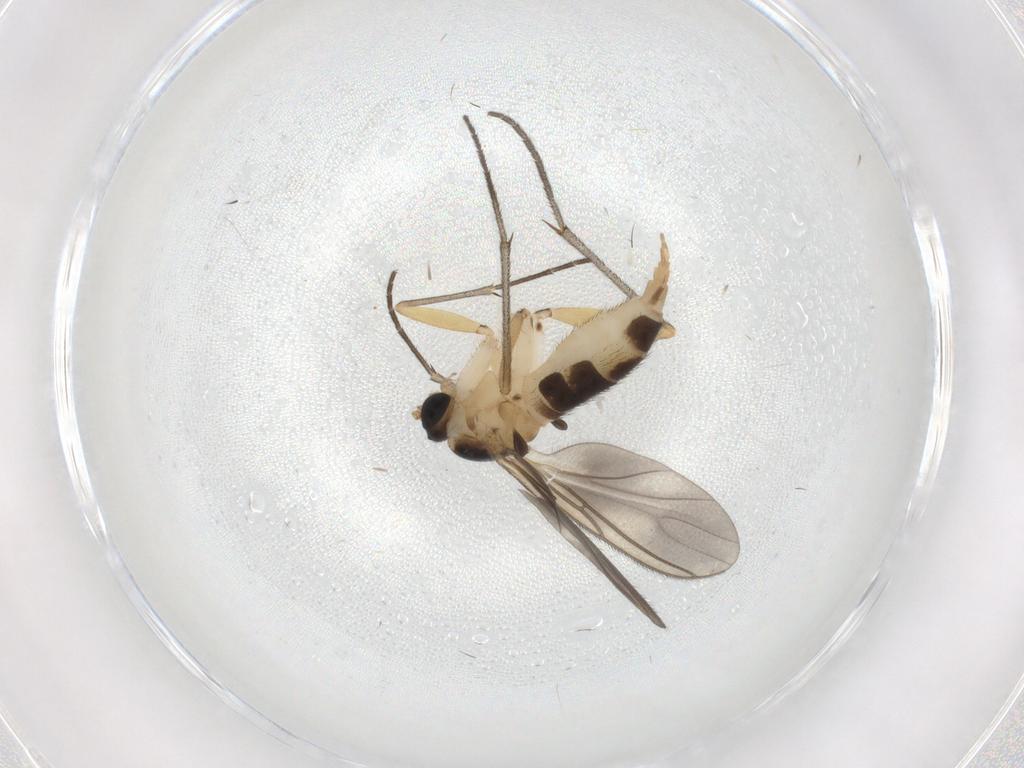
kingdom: Animalia
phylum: Arthropoda
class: Insecta
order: Diptera
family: Sciaridae
